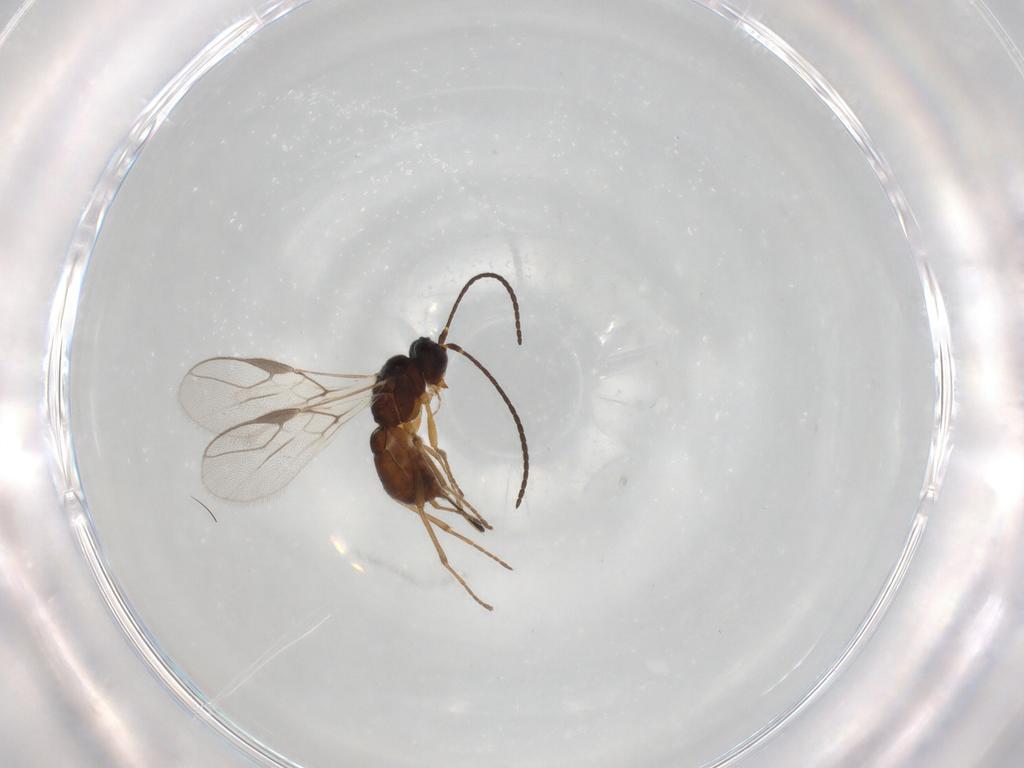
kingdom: Animalia
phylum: Arthropoda
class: Insecta
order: Hymenoptera
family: Braconidae
